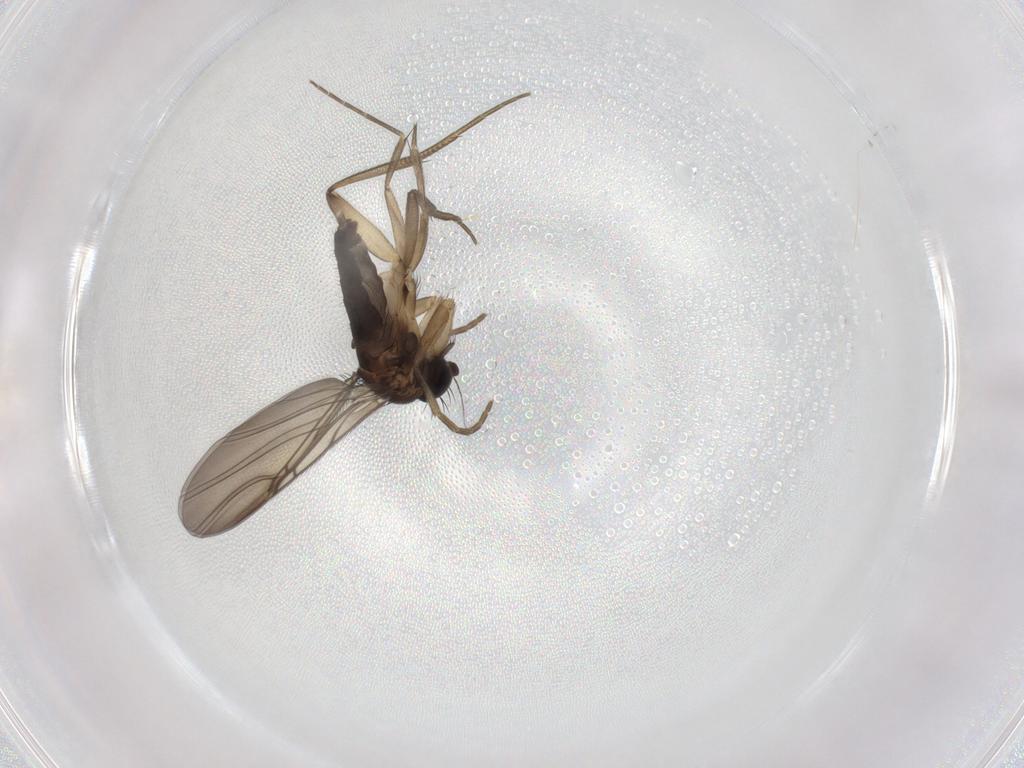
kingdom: Animalia
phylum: Arthropoda
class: Insecta
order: Diptera
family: Phoridae
